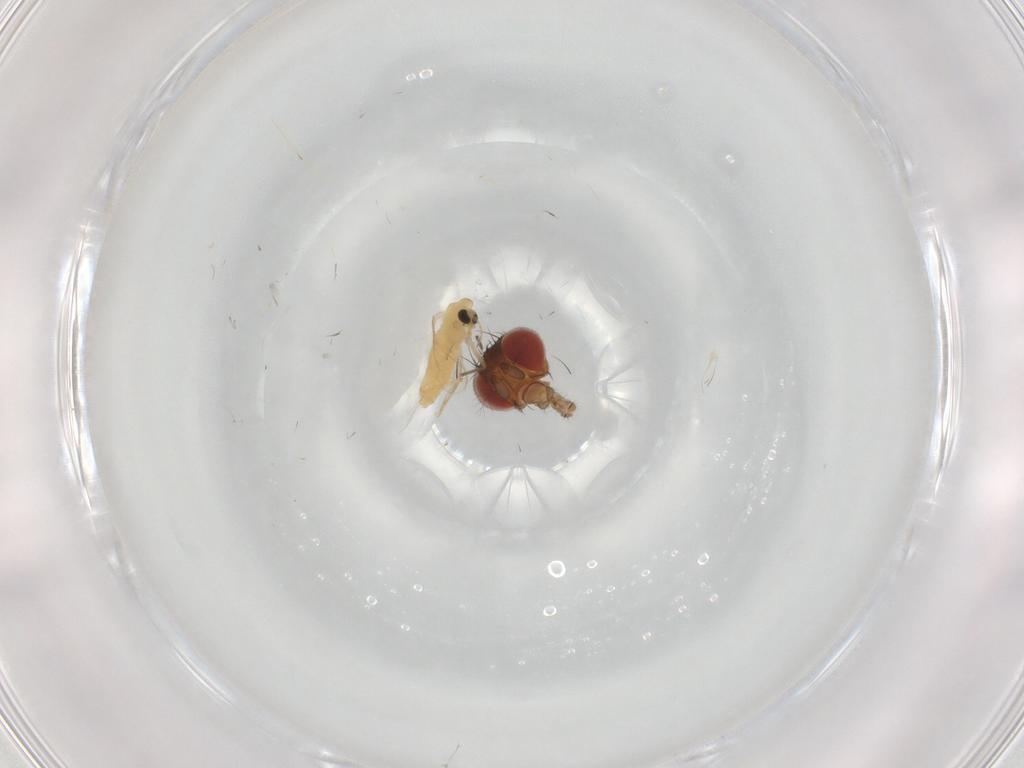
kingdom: Animalia
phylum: Arthropoda
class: Insecta
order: Diptera
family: Drosophilidae
